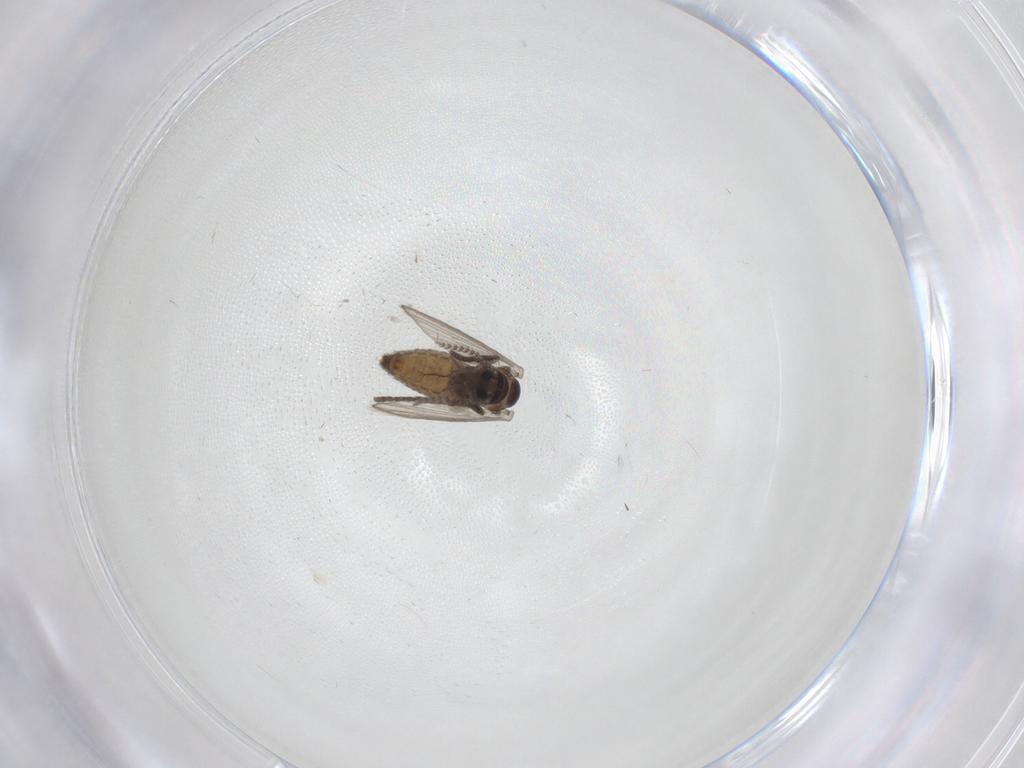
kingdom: Animalia
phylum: Arthropoda
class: Insecta
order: Diptera
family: Psychodidae
